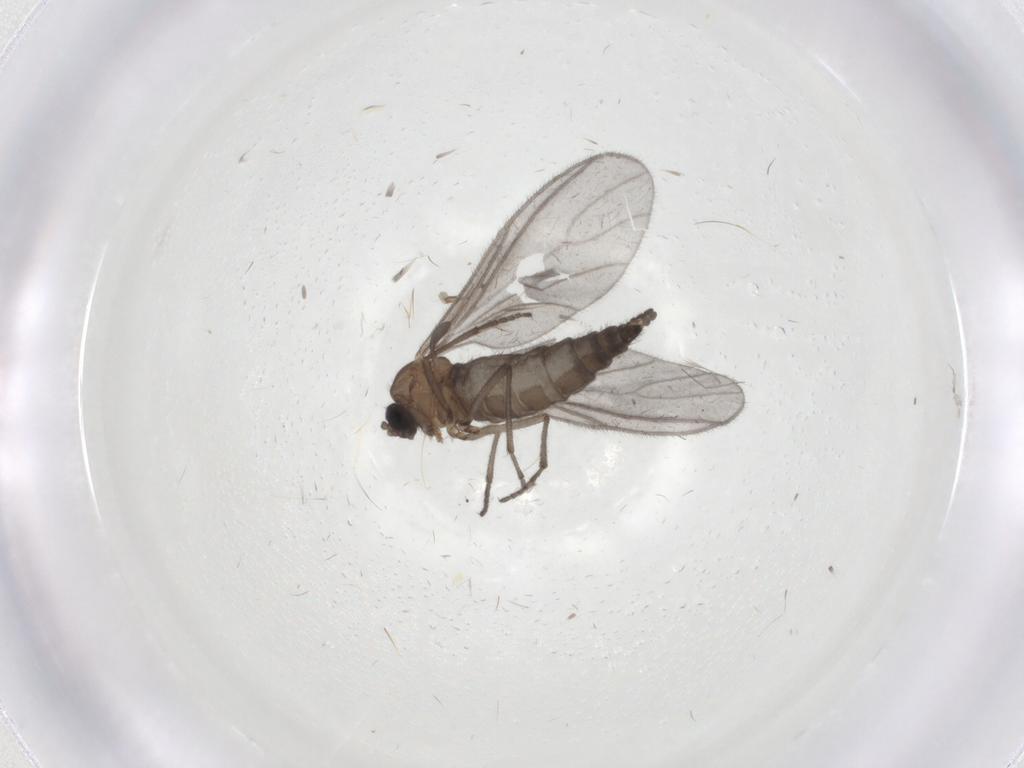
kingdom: Animalia
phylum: Arthropoda
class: Insecta
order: Diptera
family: Sciaridae
